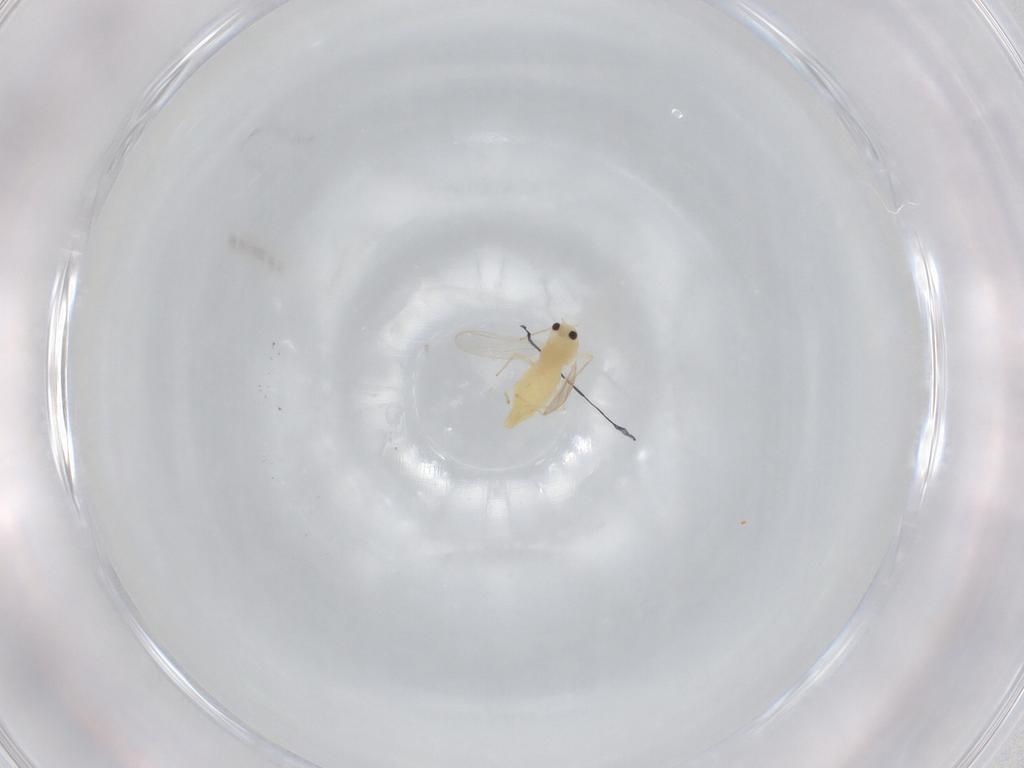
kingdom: Animalia
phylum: Arthropoda
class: Insecta
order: Diptera
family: Chironomidae
